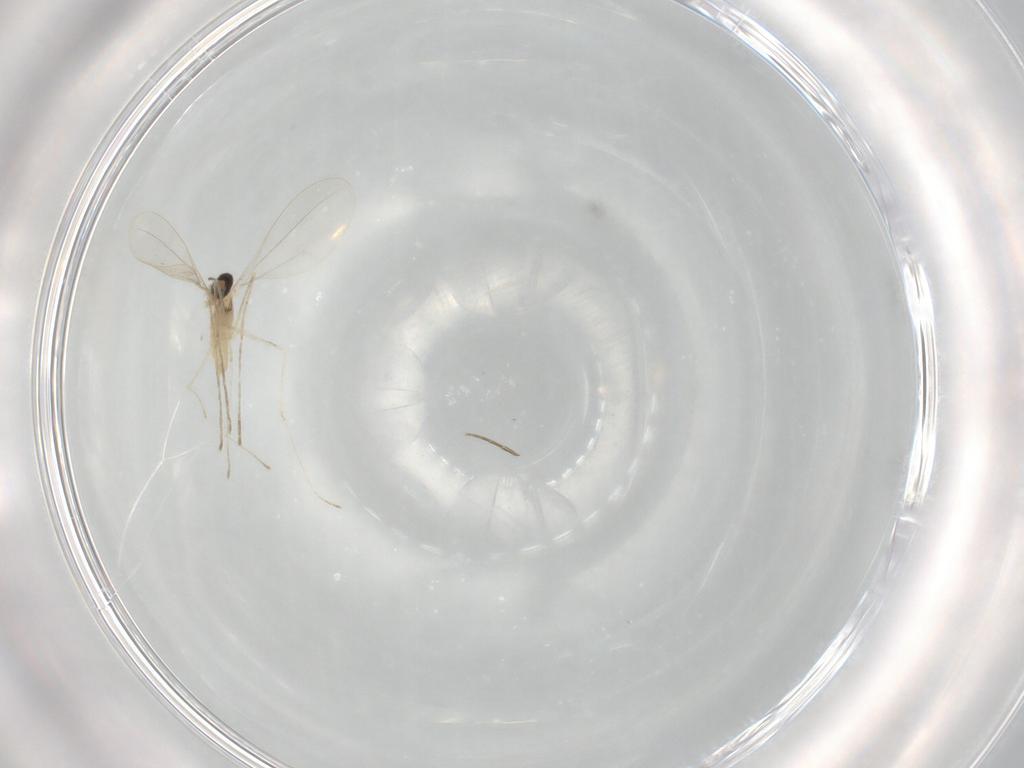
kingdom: Animalia
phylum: Arthropoda
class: Insecta
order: Diptera
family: Cecidomyiidae
